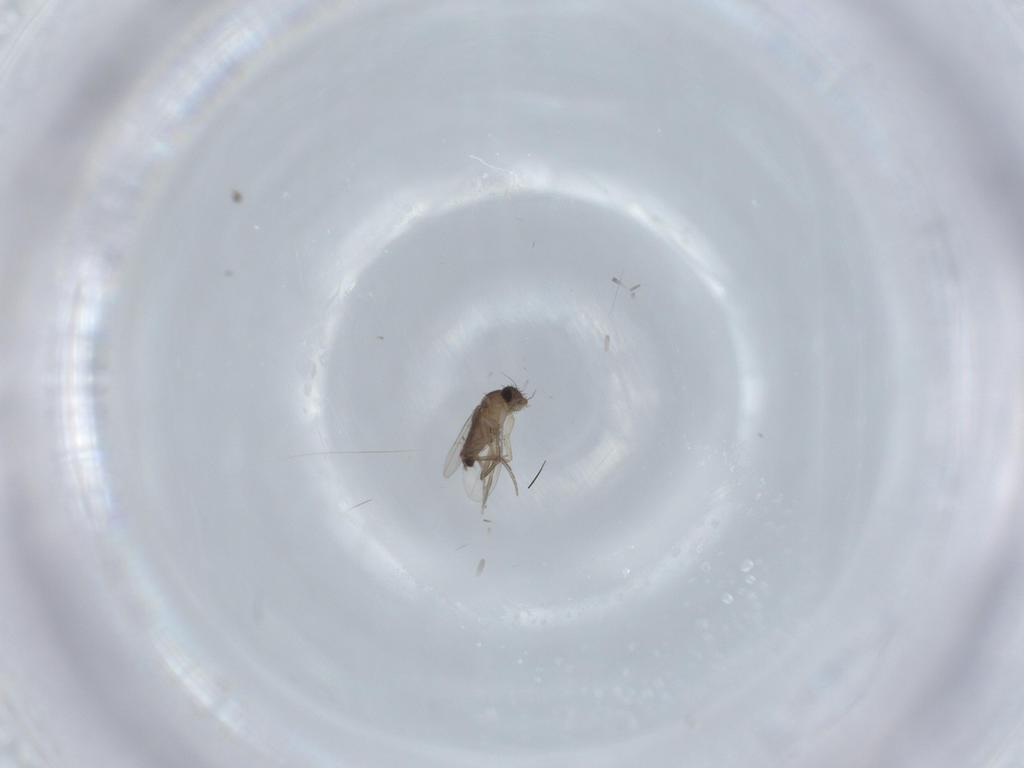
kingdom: Animalia
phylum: Arthropoda
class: Insecta
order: Diptera
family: Phoridae
